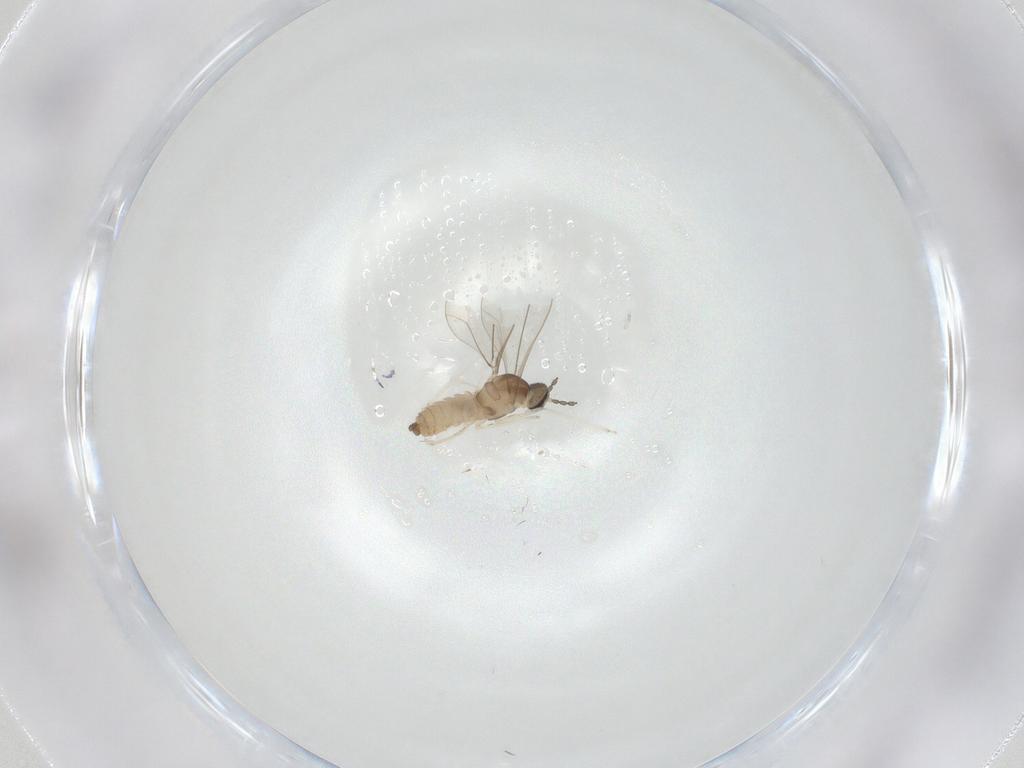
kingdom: Animalia
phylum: Arthropoda
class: Insecta
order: Diptera
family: Cecidomyiidae
